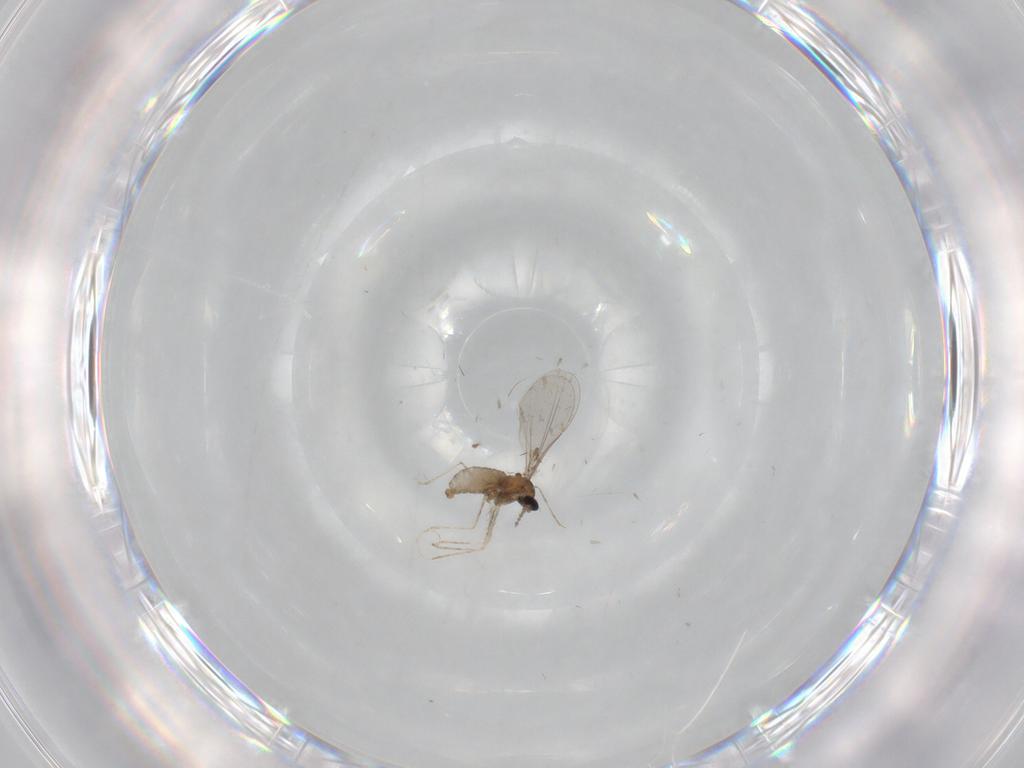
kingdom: Animalia
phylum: Arthropoda
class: Insecta
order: Diptera
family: Cecidomyiidae
